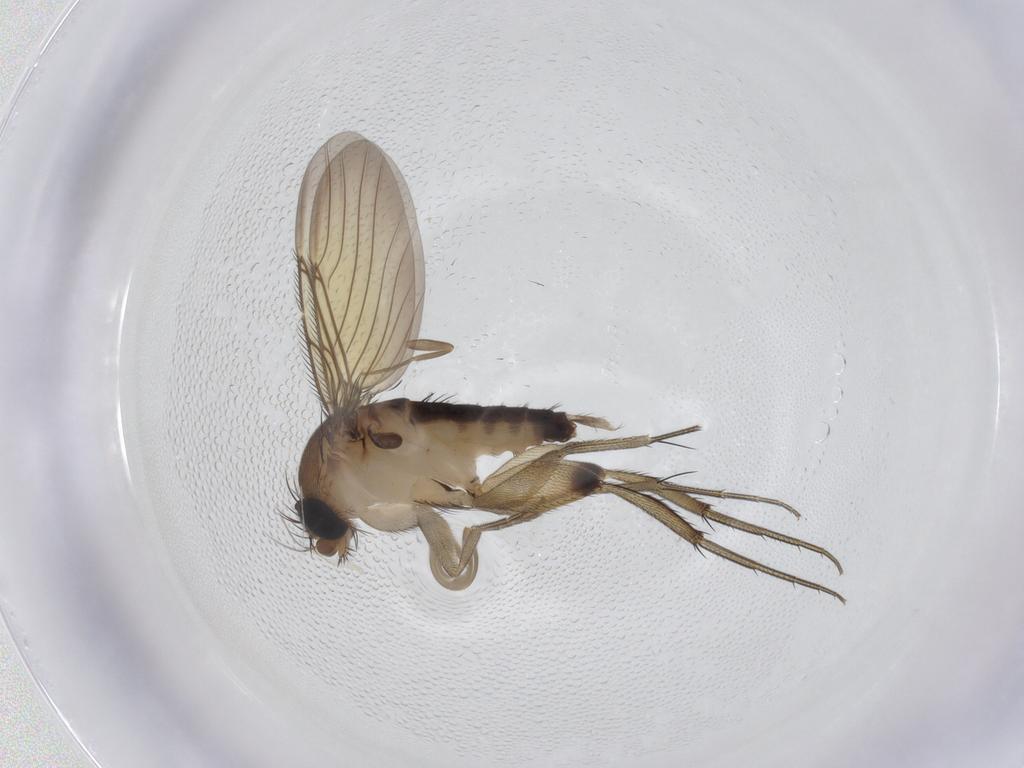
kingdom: Animalia
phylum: Arthropoda
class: Insecta
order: Diptera
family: Phoridae
